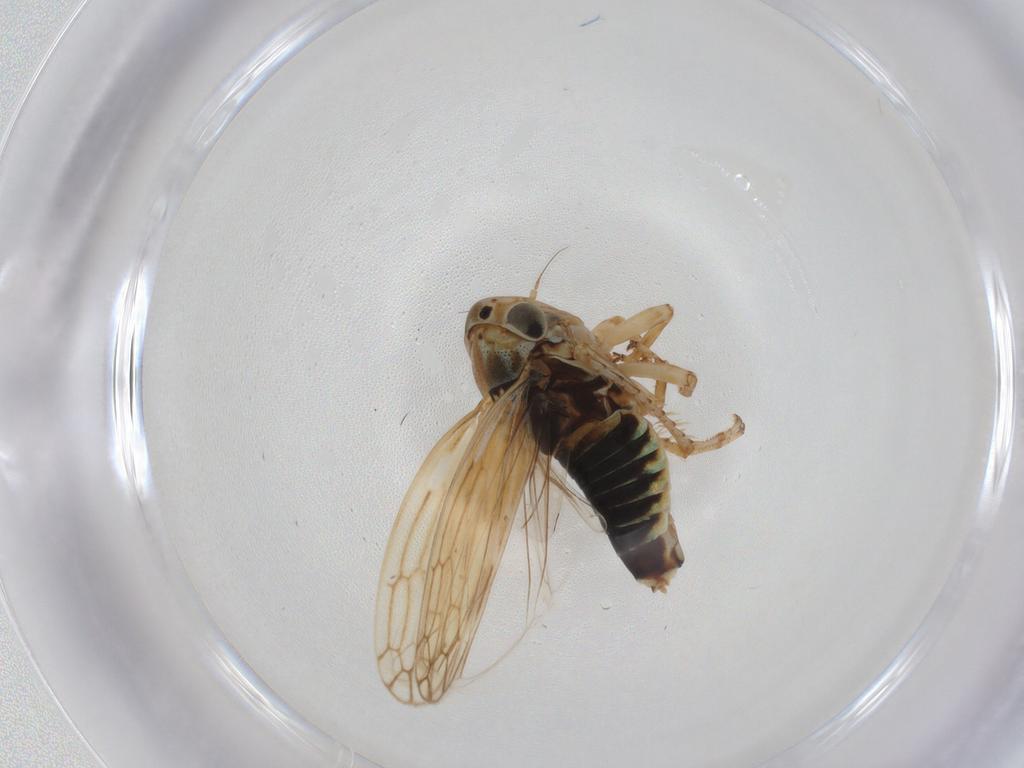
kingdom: Animalia
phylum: Arthropoda
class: Insecta
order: Hemiptera
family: Cicadellidae
